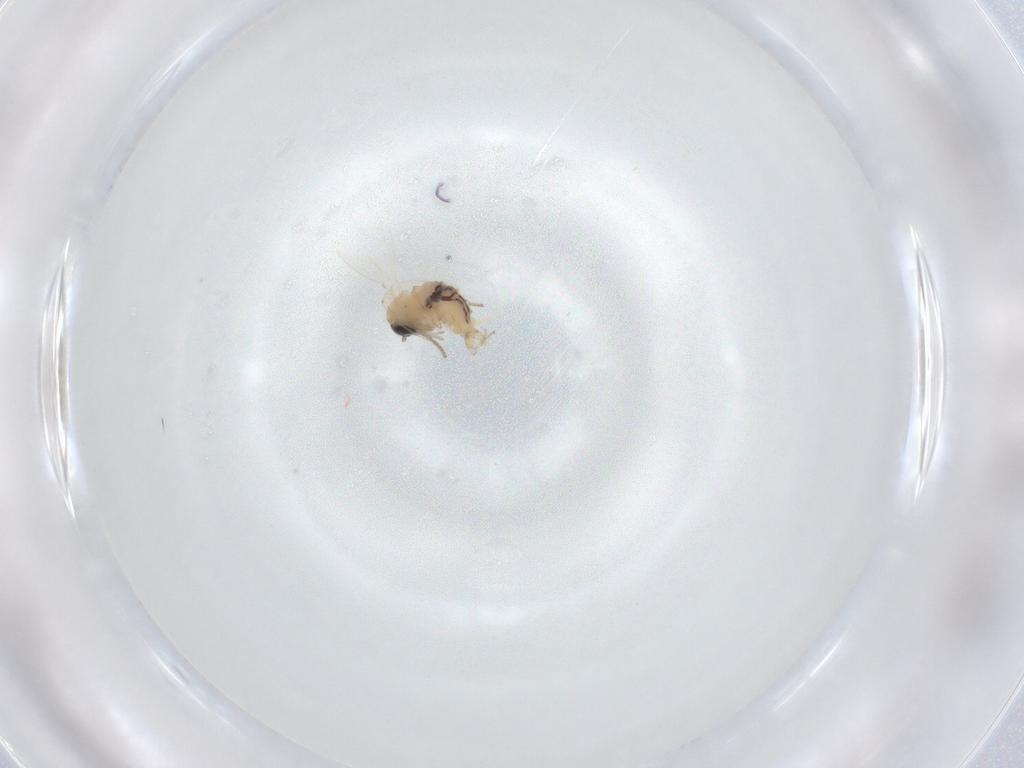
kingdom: Animalia
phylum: Arthropoda
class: Insecta
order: Diptera
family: Psychodidae
